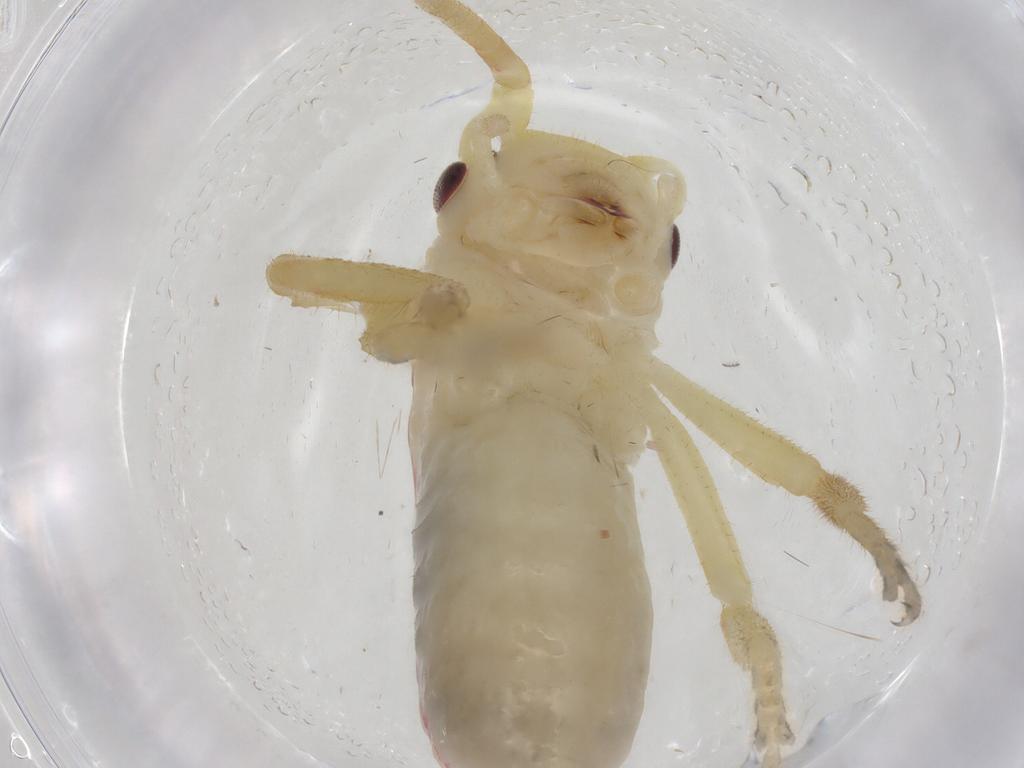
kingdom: Animalia
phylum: Arthropoda
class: Insecta
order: Orthoptera
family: Gryllacrididae
